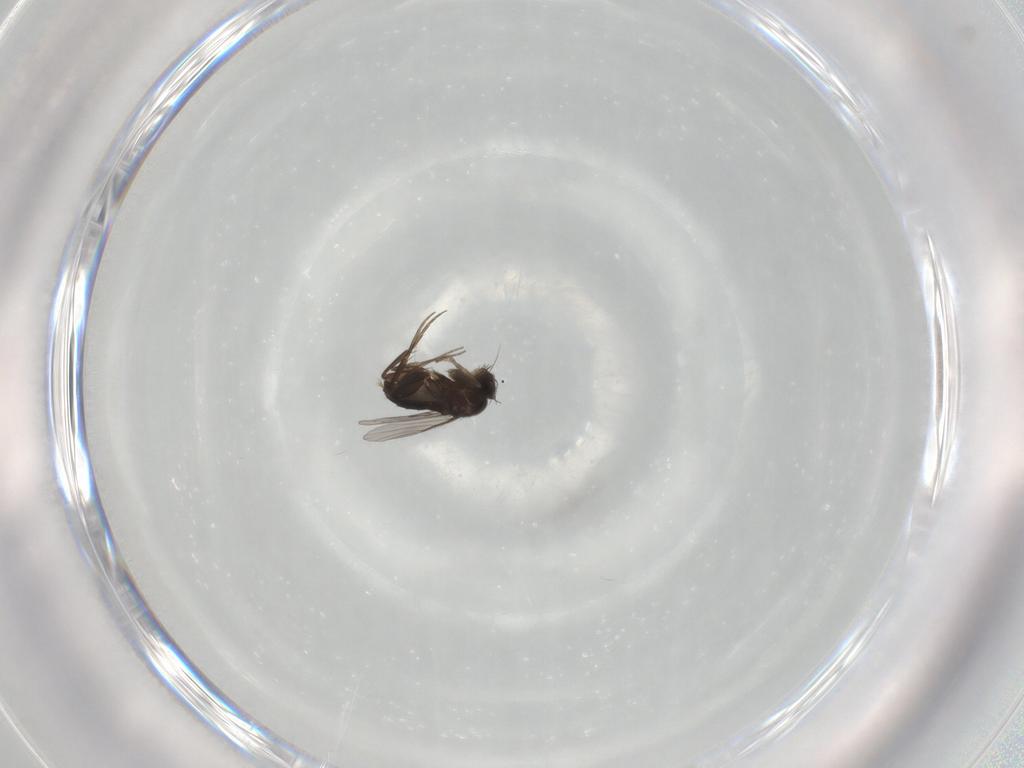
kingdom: Animalia
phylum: Arthropoda
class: Insecta
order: Diptera
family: Phoridae
